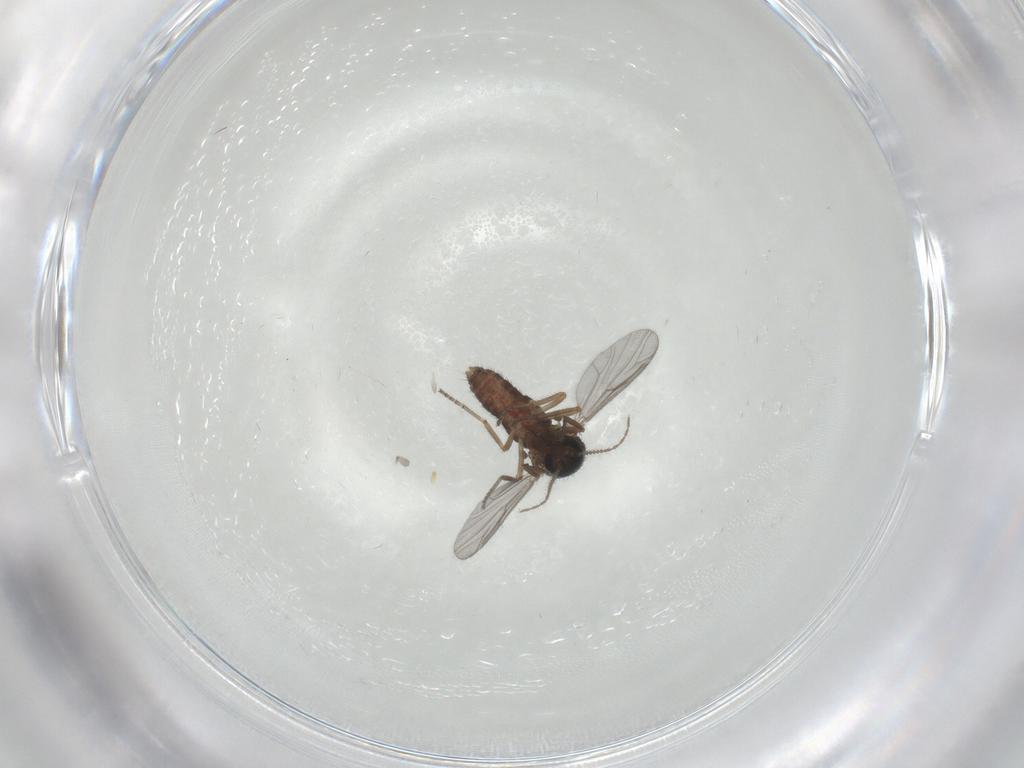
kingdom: Animalia
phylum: Arthropoda
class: Insecta
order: Diptera
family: Ceratopogonidae
